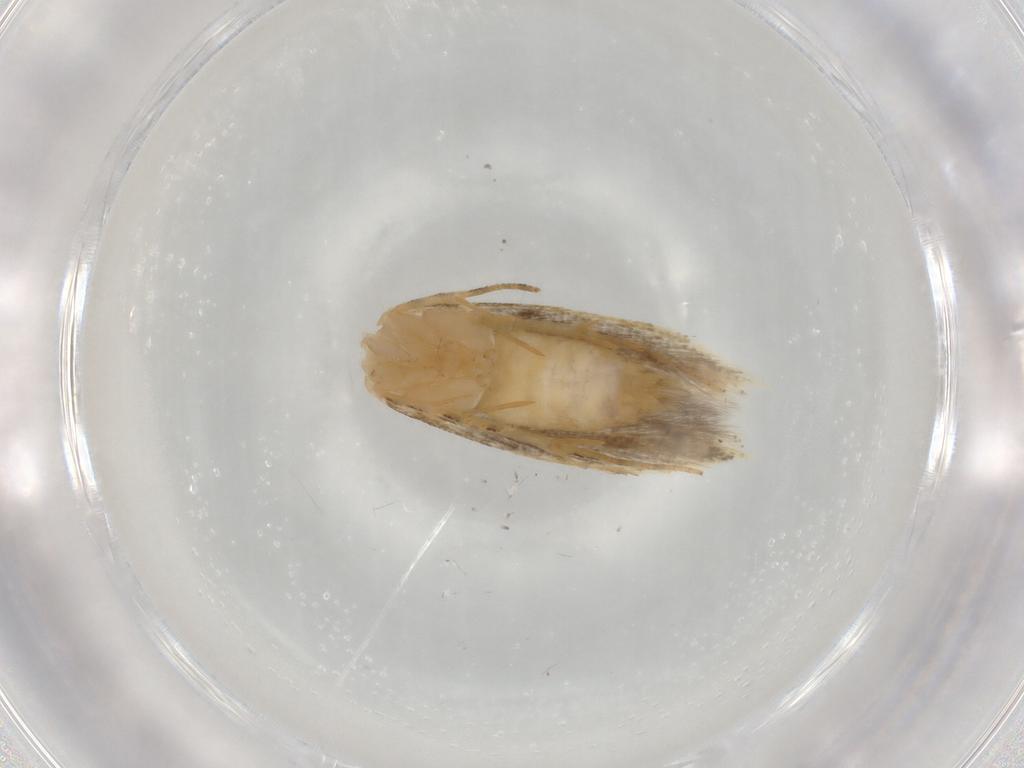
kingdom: Animalia
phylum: Arthropoda
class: Insecta
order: Lepidoptera
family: Gelechiidae
